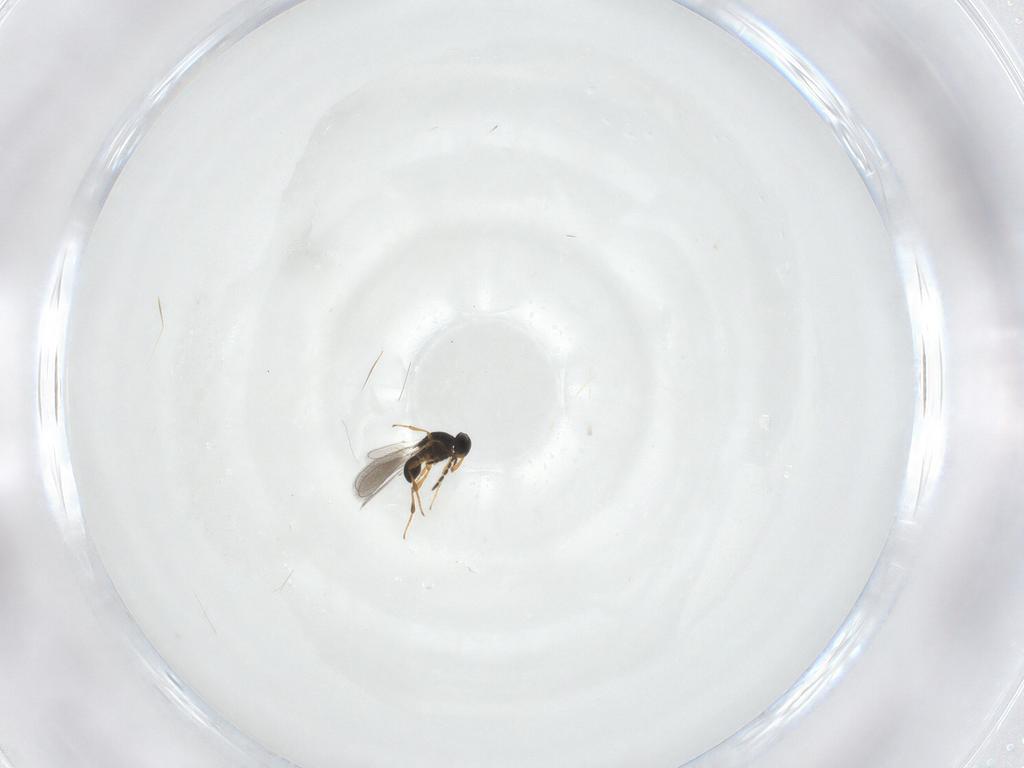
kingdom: Animalia
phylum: Arthropoda
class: Insecta
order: Hymenoptera
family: Platygastridae
